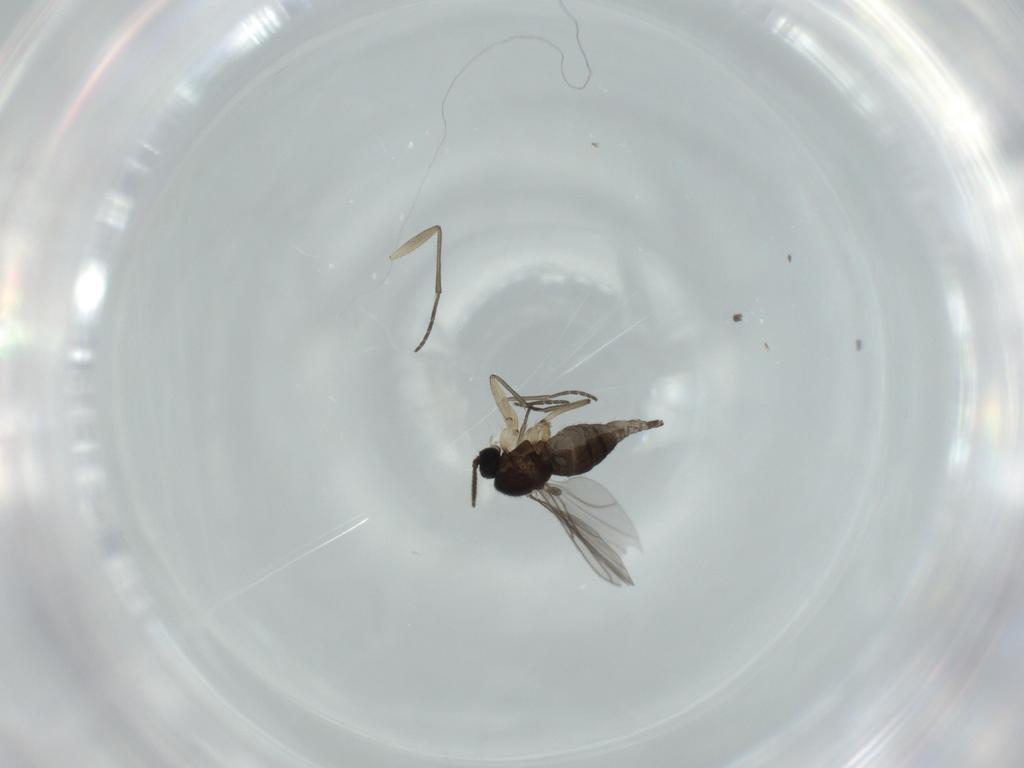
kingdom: Animalia
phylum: Arthropoda
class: Insecta
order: Diptera
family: Sciaridae
